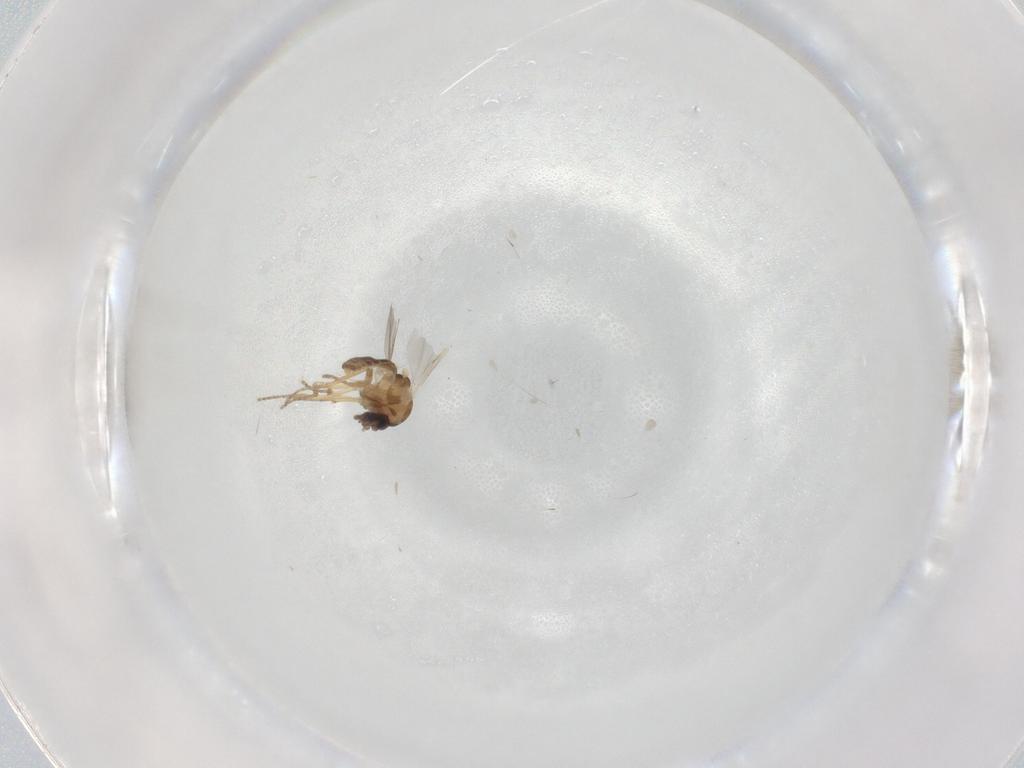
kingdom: Animalia
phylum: Arthropoda
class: Insecta
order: Diptera
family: Ceratopogonidae
